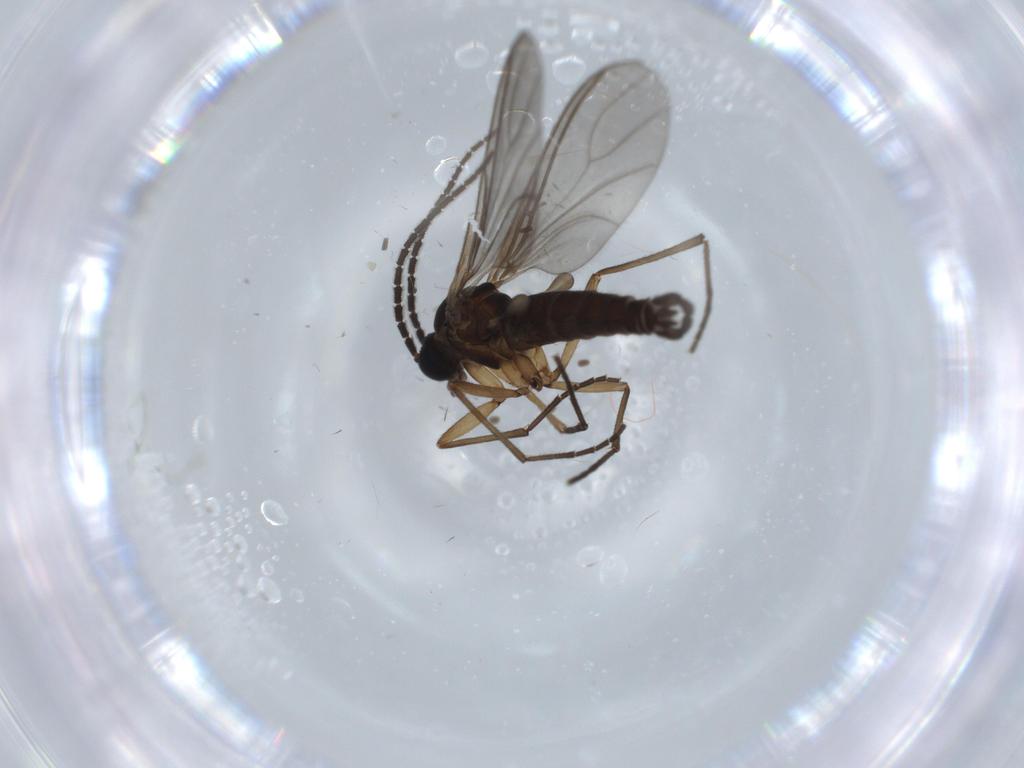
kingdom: Animalia
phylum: Arthropoda
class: Insecta
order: Diptera
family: Sciaridae
